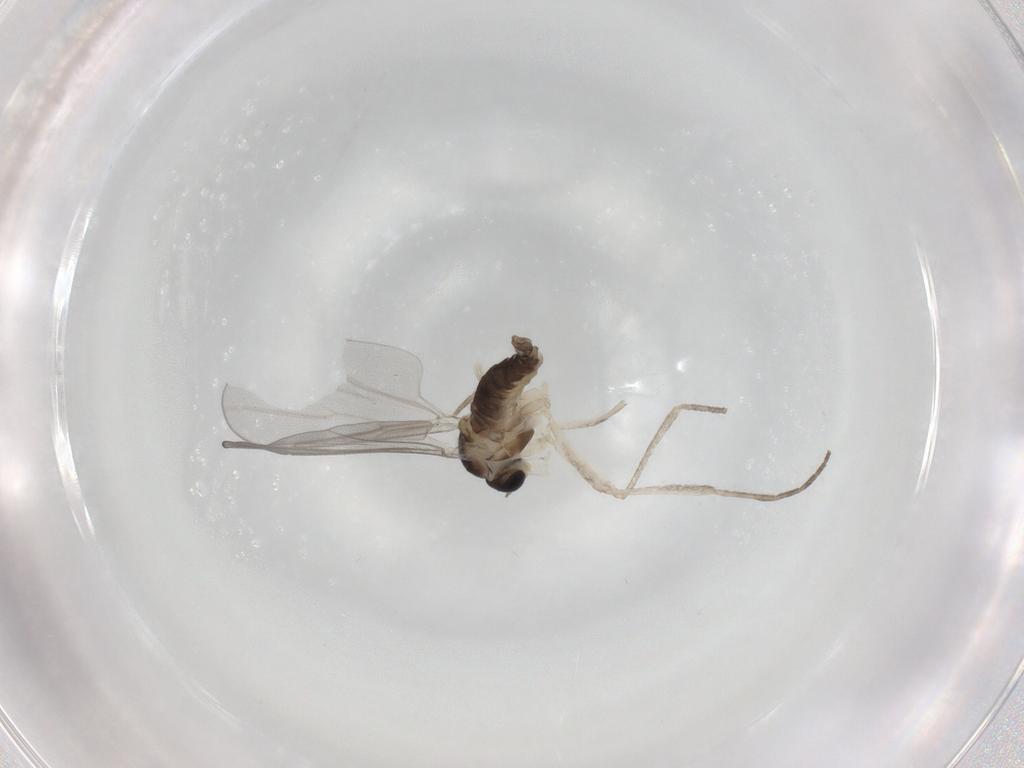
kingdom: Animalia
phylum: Arthropoda
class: Insecta
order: Diptera
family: Cecidomyiidae
